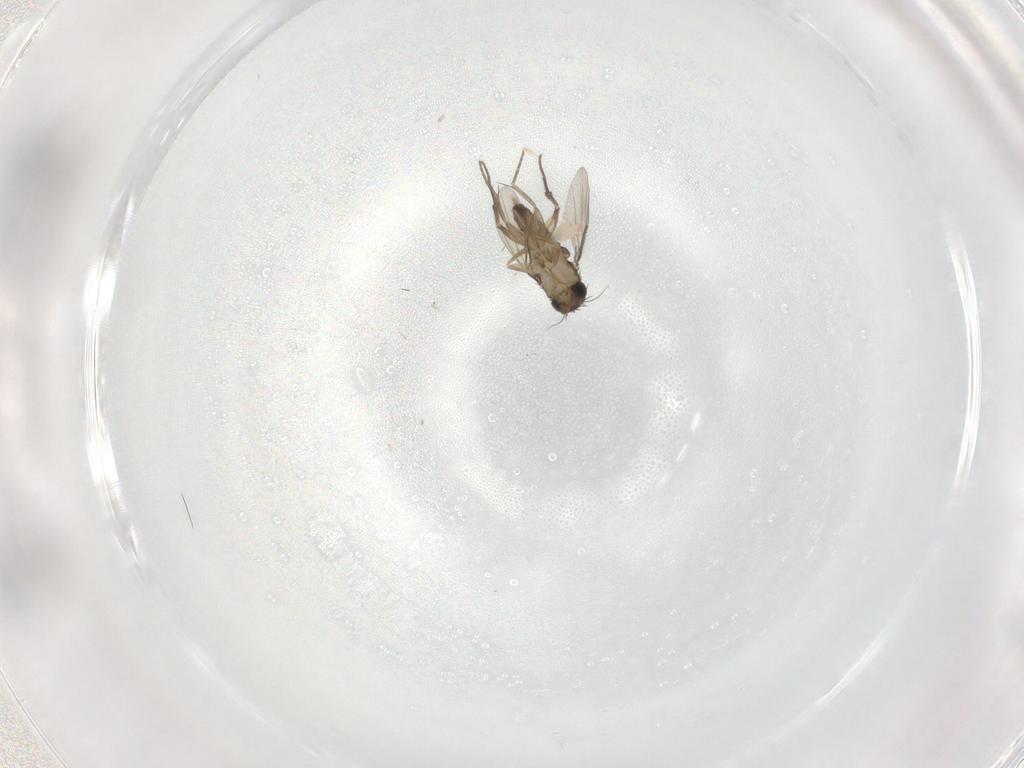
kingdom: Animalia
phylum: Arthropoda
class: Insecta
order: Diptera
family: Phoridae
